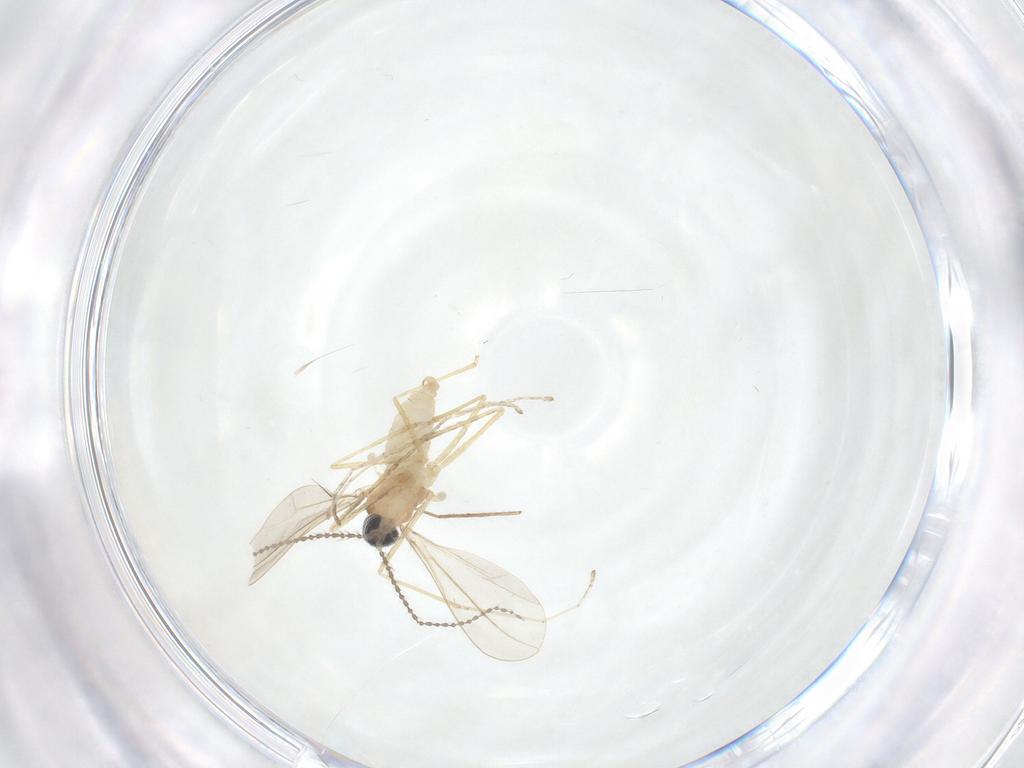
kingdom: Animalia
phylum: Arthropoda
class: Insecta
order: Diptera
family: Cecidomyiidae
